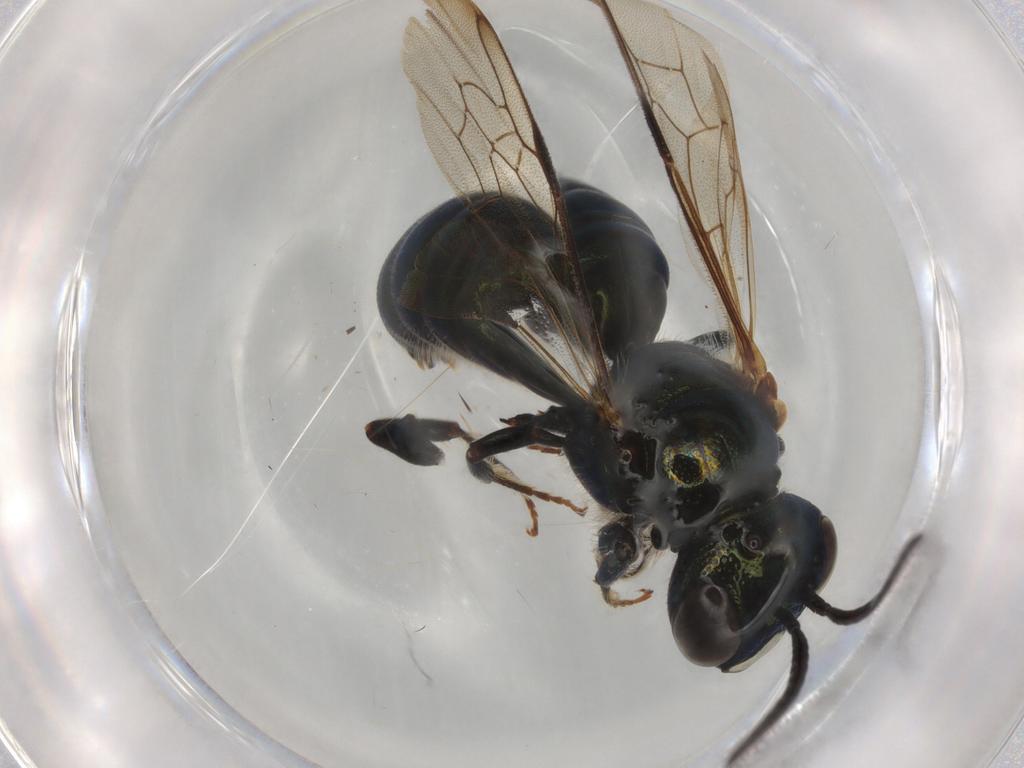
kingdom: Animalia
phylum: Arthropoda
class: Insecta
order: Hymenoptera
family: Apidae
